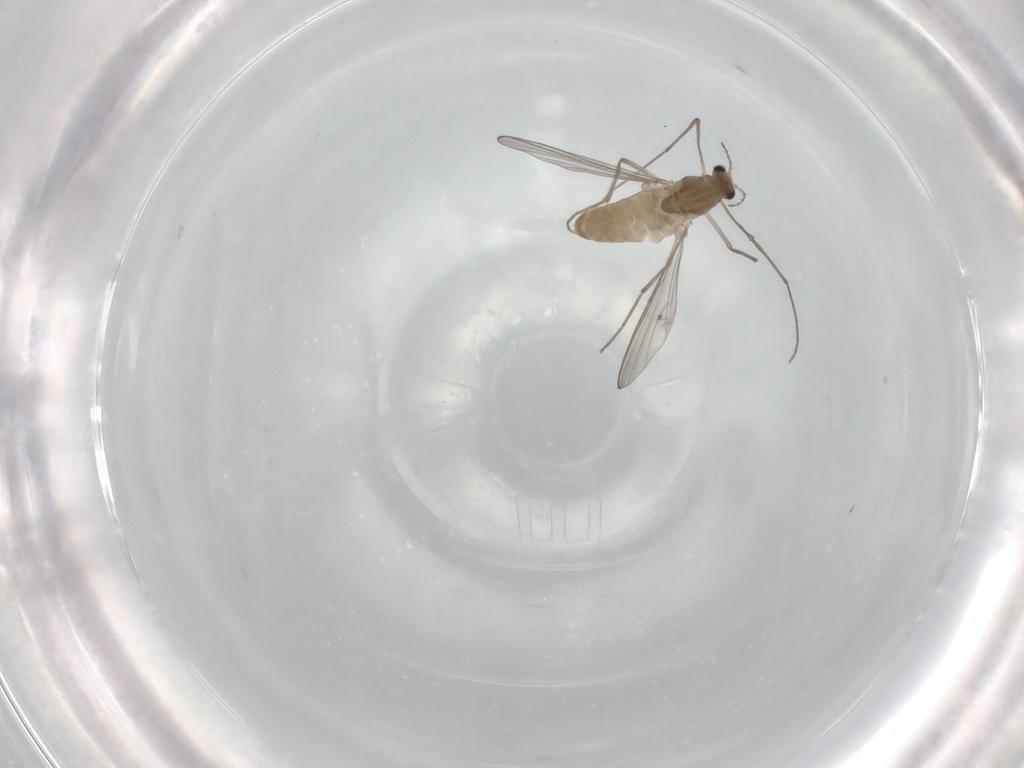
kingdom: Animalia
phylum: Arthropoda
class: Insecta
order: Diptera
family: Chironomidae
